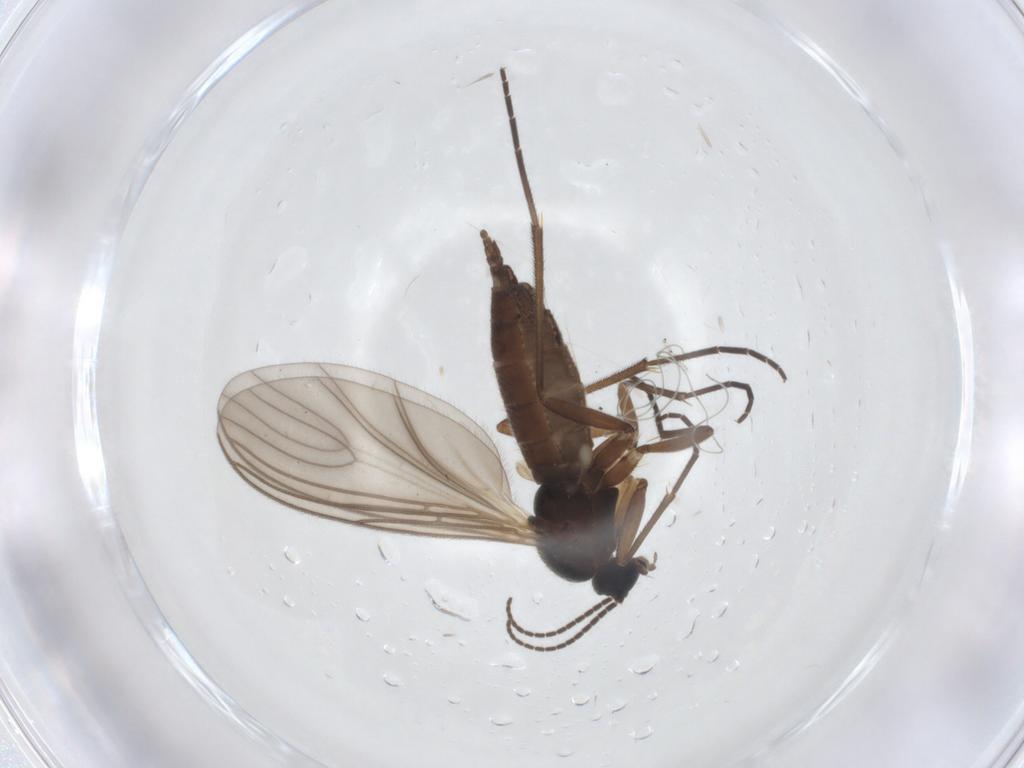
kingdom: Animalia
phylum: Arthropoda
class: Insecta
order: Diptera
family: Sciaridae
